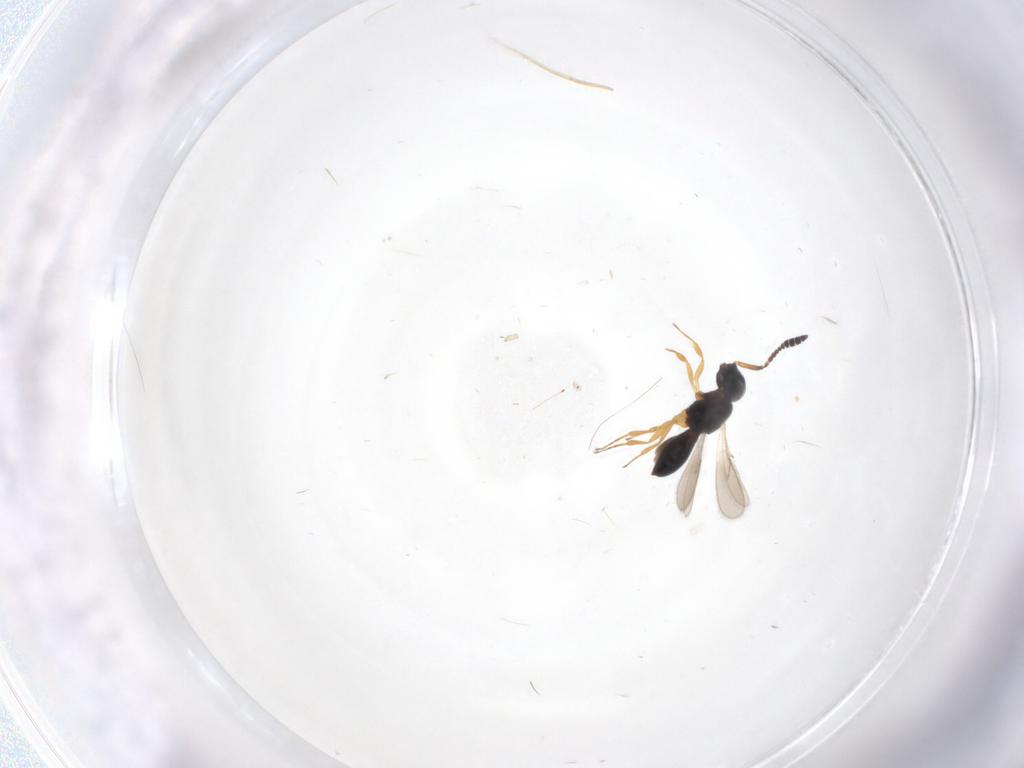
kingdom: Animalia
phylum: Arthropoda
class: Insecta
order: Hymenoptera
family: Scelionidae
